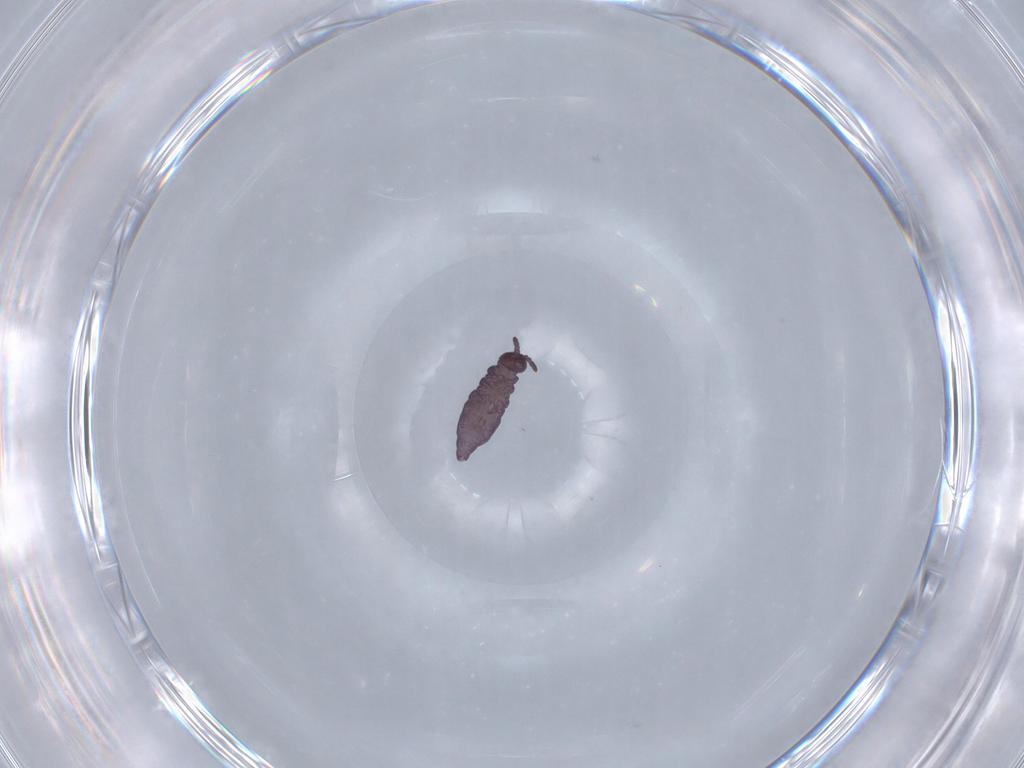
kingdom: Animalia
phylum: Arthropoda
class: Collembola
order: Poduromorpha
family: Hypogastruridae
